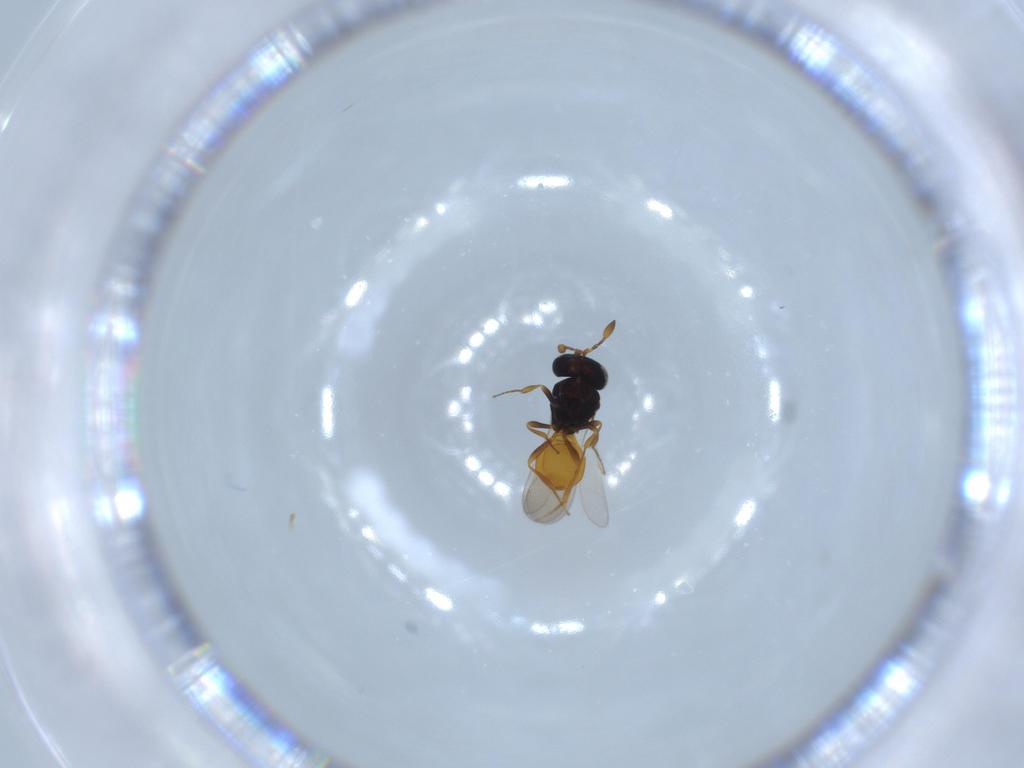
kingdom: Animalia
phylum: Arthropoda
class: Insecta
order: Hymenoptera
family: Scelionidae
